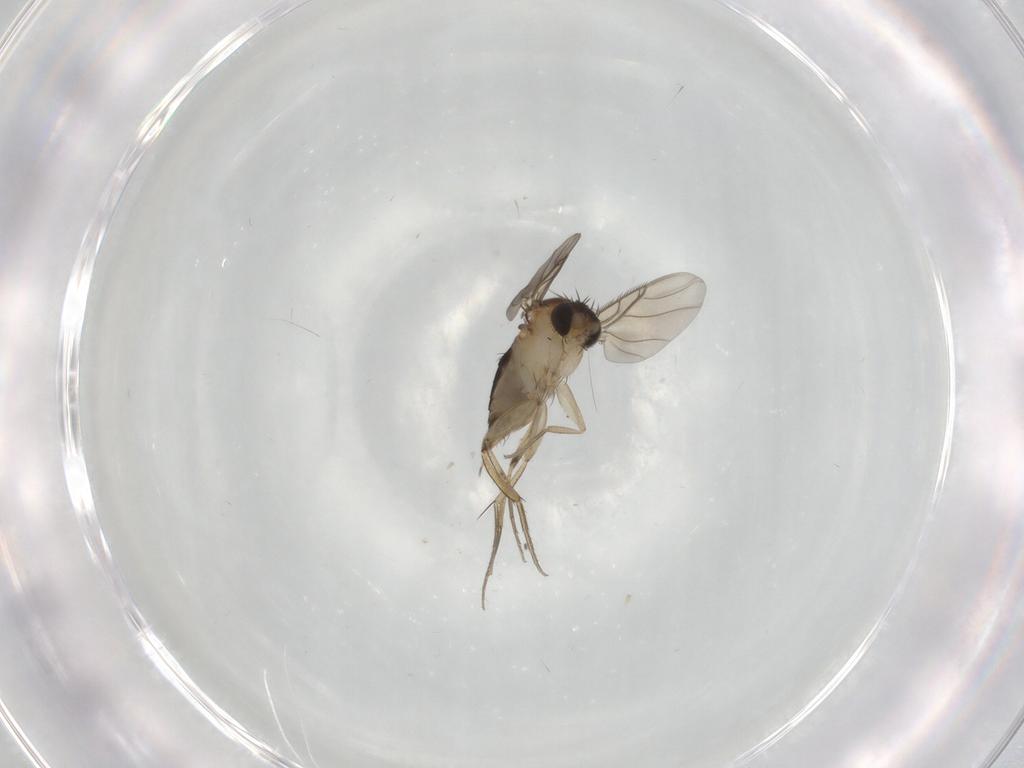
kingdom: Animalia
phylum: Arthropoda
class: Insecta
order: Diptera
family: Phoridae
